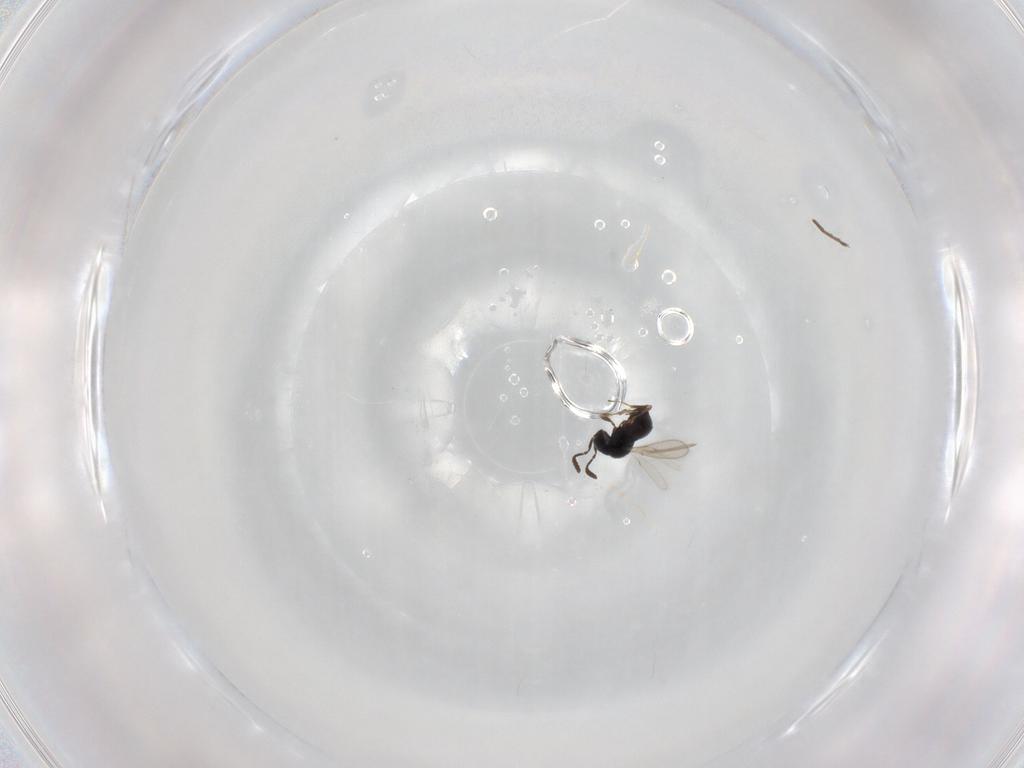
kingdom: Animalia
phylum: Arthropoda
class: Insecta
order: Hymenoptera
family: Scelionidae
